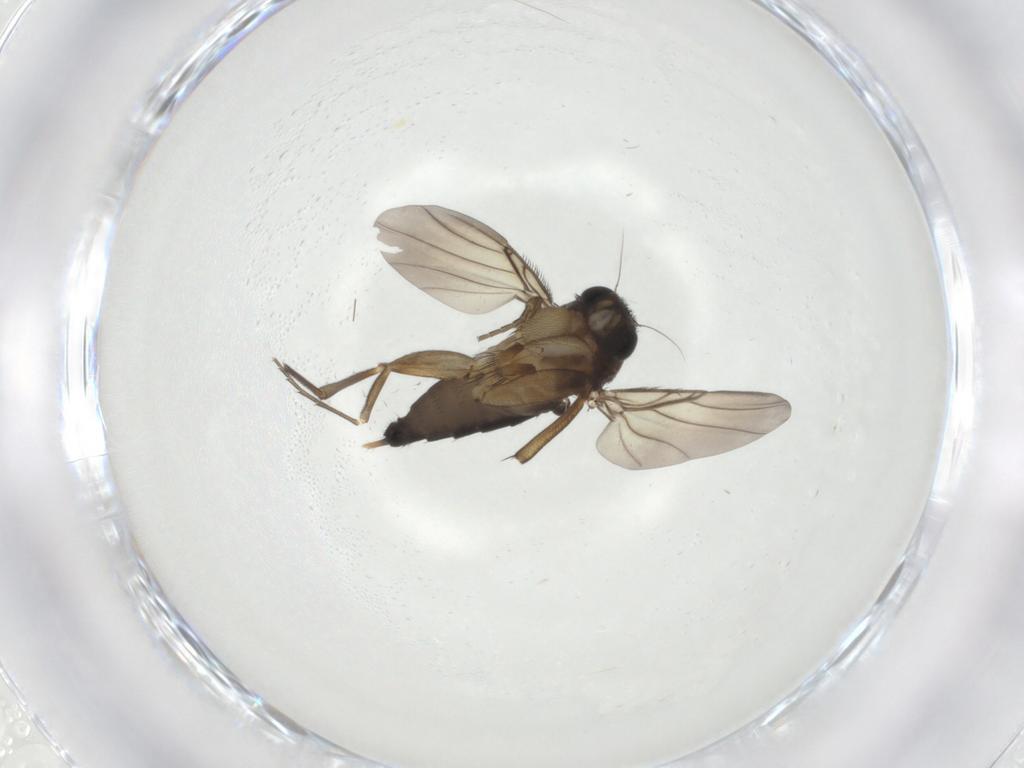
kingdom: Animalia
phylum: Arthropoda
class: Insecta
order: Diptera
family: Phoridae
